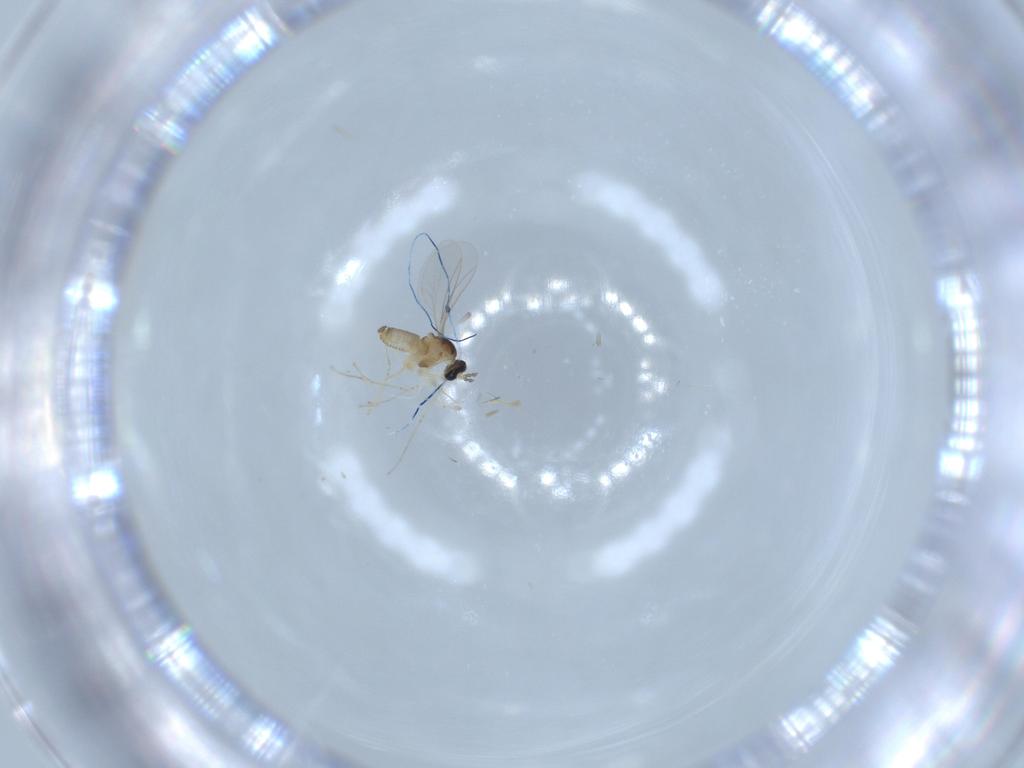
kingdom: Animalia
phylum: Arthropoda
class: Insecta
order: Diptera
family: Cecidomyiidae
